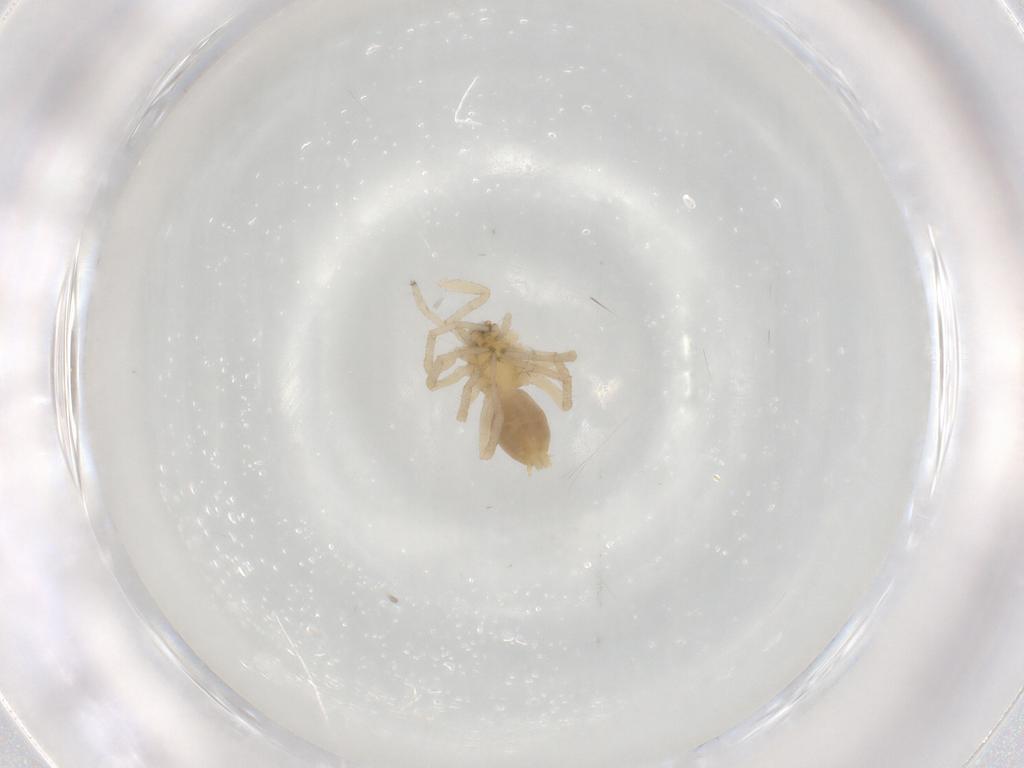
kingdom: Animalia
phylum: Arthropoda
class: Arachnida
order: Araneae
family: Anyphaenidae
